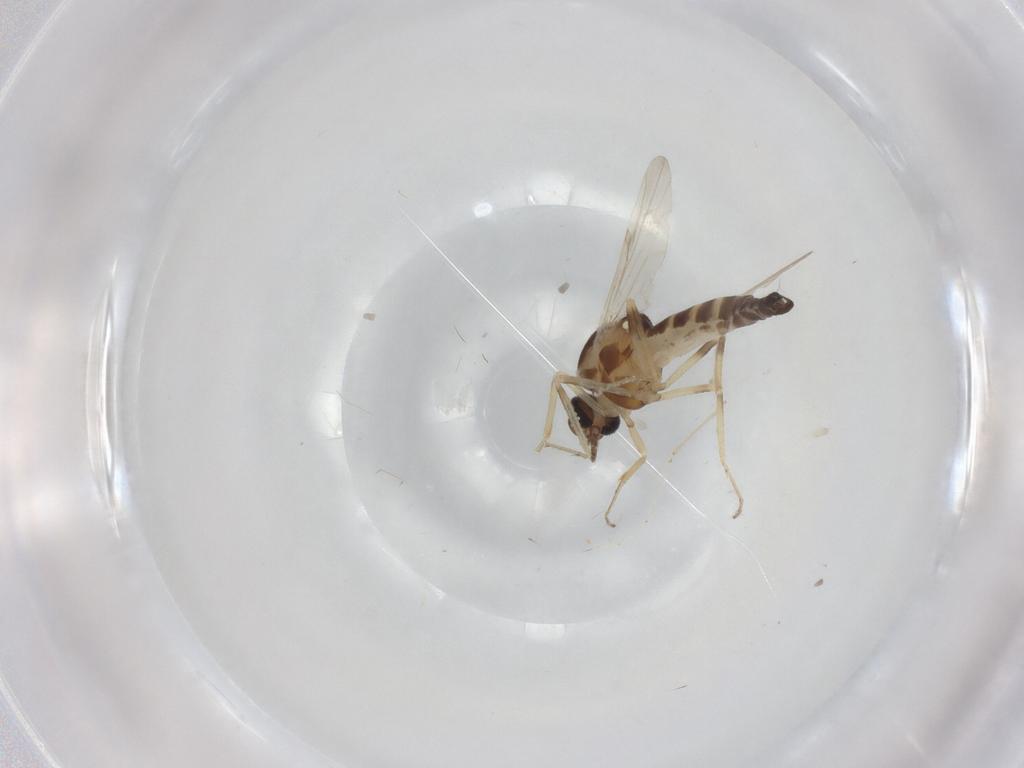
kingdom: Animalia
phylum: Arthropoda
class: Insecta
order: Diptera
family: Ceratopogonidae
